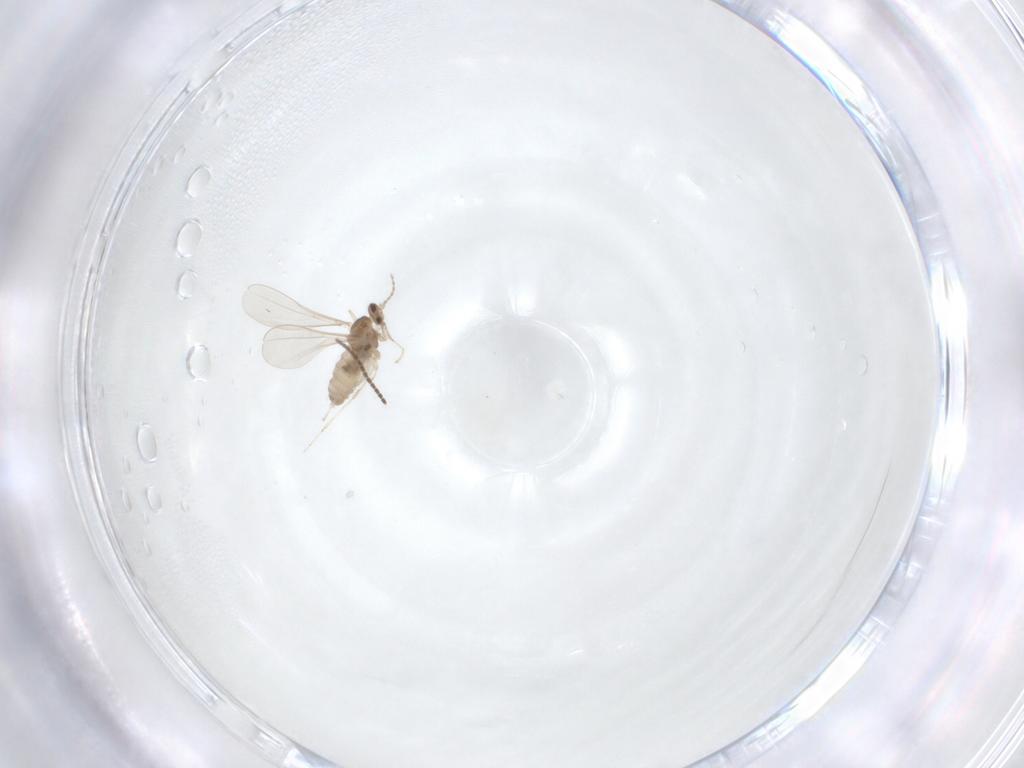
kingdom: Animalia
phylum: Arthropoda
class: Insecta
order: Diptera
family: Cecidomyiidae
